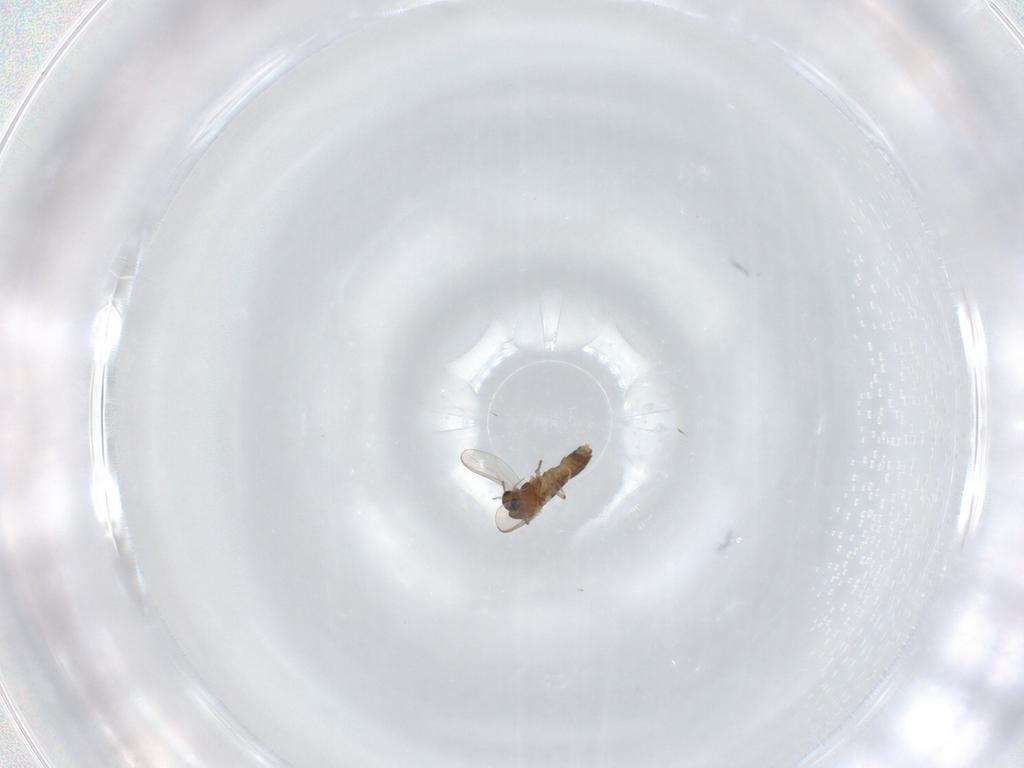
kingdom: Animalia
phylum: Arthropoda
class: Insecta
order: Diptera
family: Chironomidae
